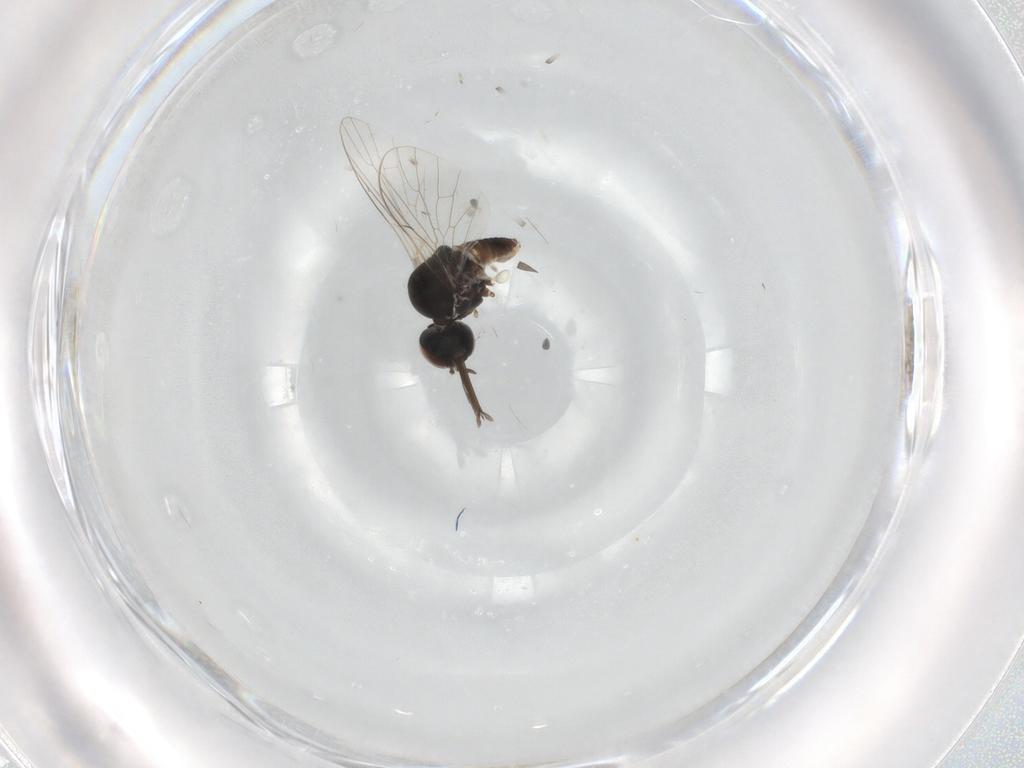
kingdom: Animalia
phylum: Arthropoda
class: Insecta
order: Diptera
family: Bombyliidae
